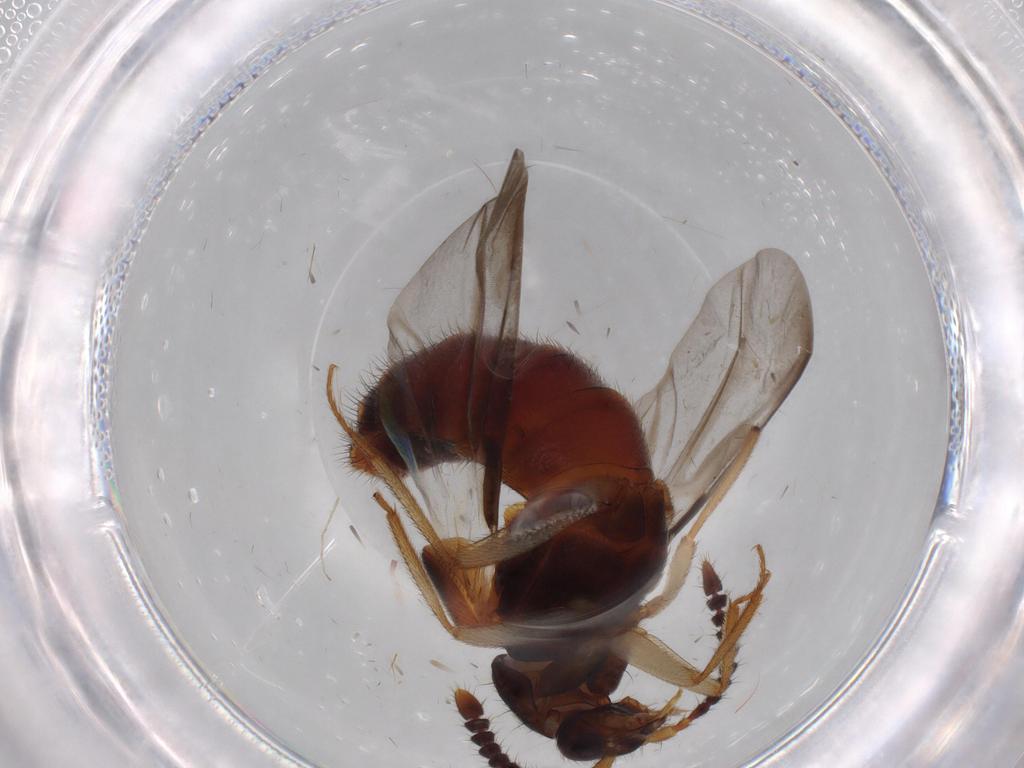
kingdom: Animalia
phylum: Arthropoda
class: Insecta
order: Coleoptera
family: Staphylinidae
